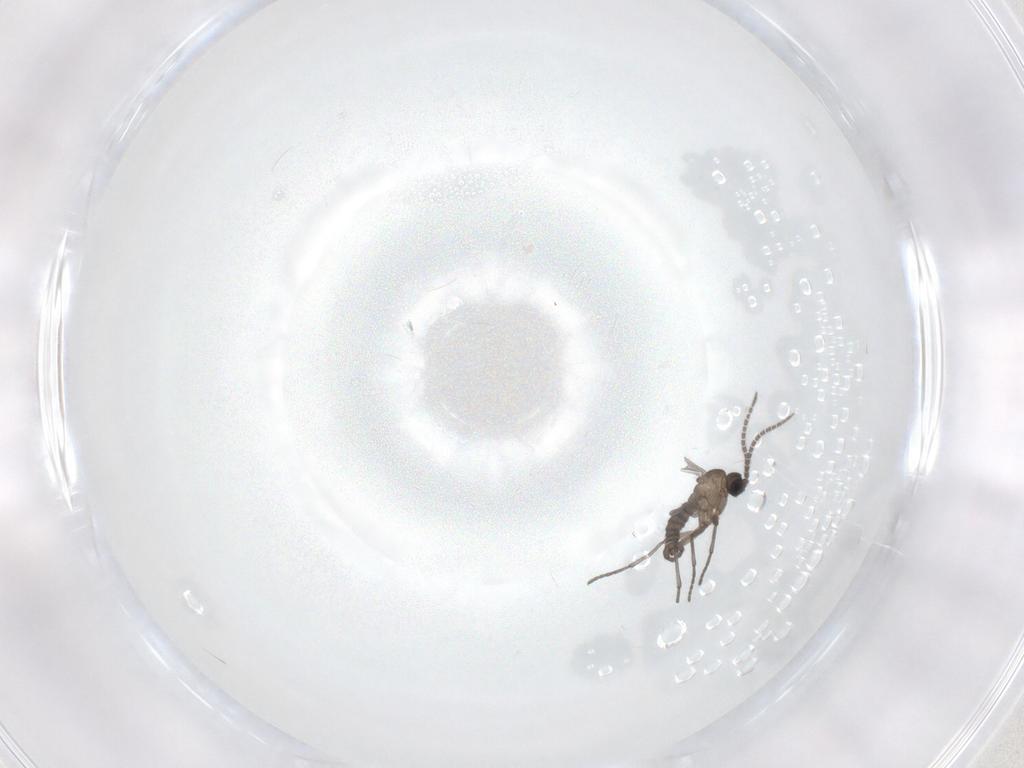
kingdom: Animalia
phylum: Arthropoda
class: Insecta
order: Diptera
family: Sciaridae
